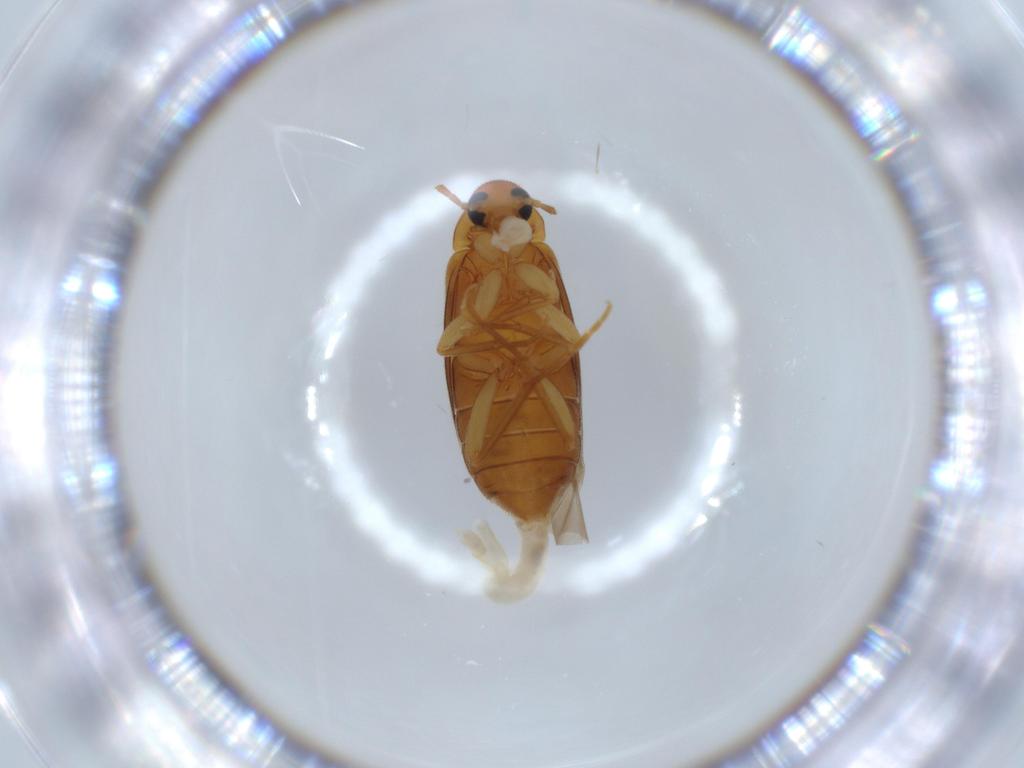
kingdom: Animalia
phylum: Arthropoda
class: Insecta
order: Coleoptera
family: Scraptiidae
